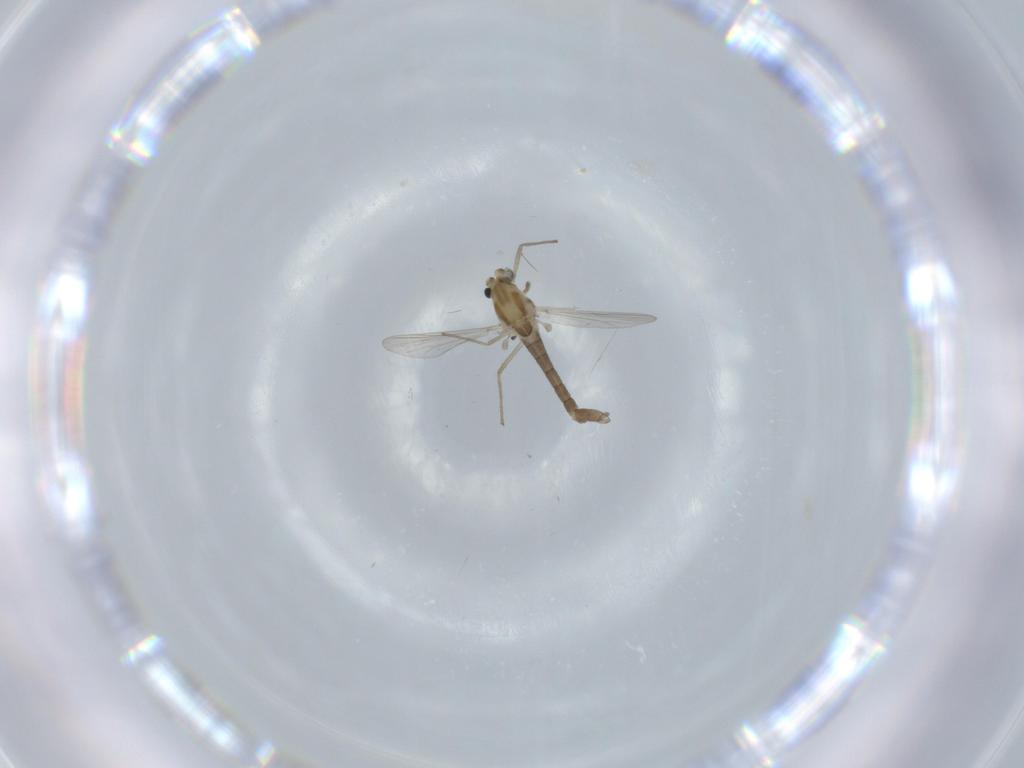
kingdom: Animalia
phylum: Arthropoda
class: Insecta
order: Diptera
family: Sciaridae
